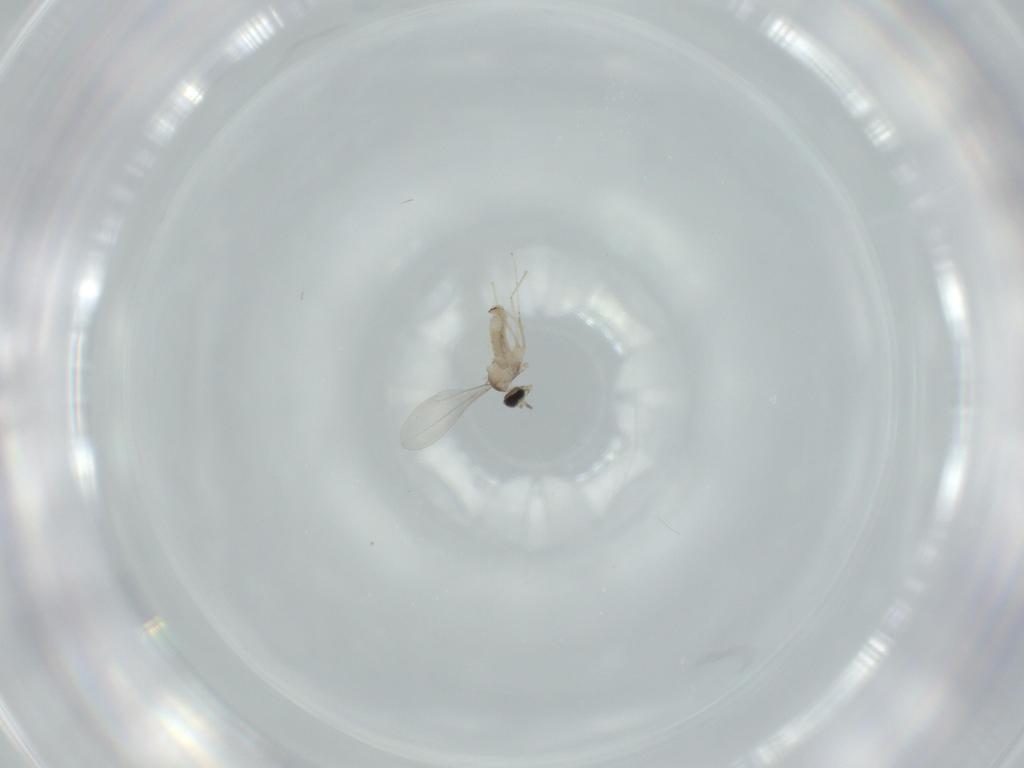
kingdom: Animalia
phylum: Arthropoda
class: Insecta
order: Diptera
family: Cecidomyiidae
